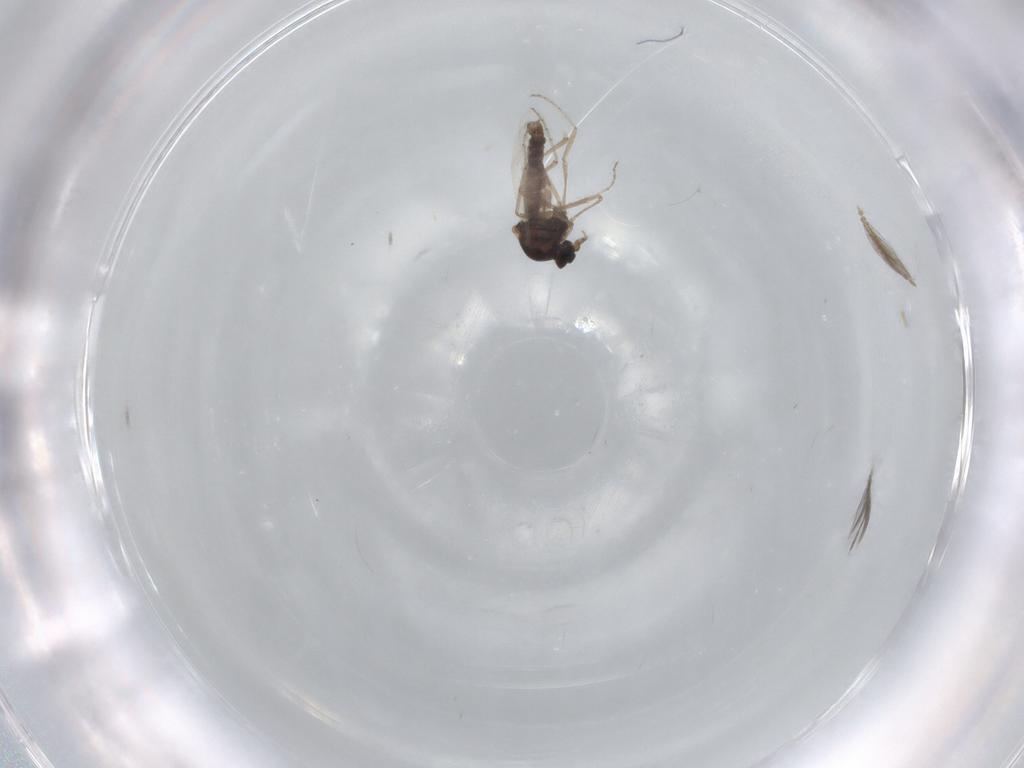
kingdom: Animalia
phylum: Arthropoda
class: Insecta
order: Diptera
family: Ceratopogonidae
